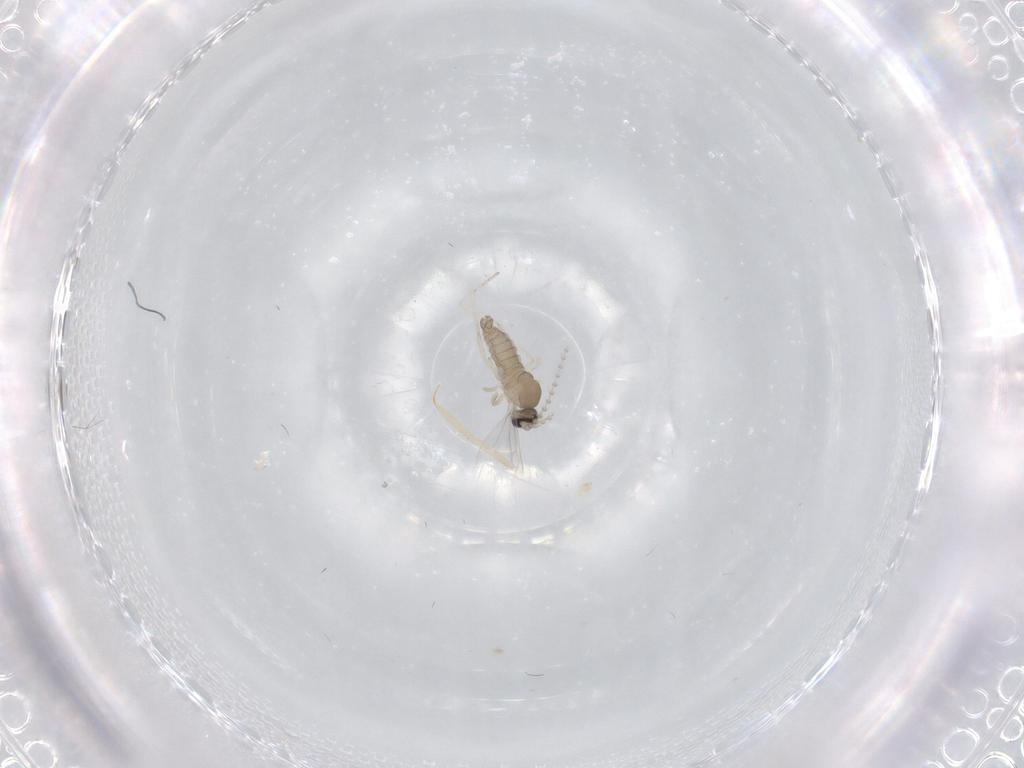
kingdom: Animalia
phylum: Arthropoda
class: Insecta
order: Diptera
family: Cecidomyiidae
